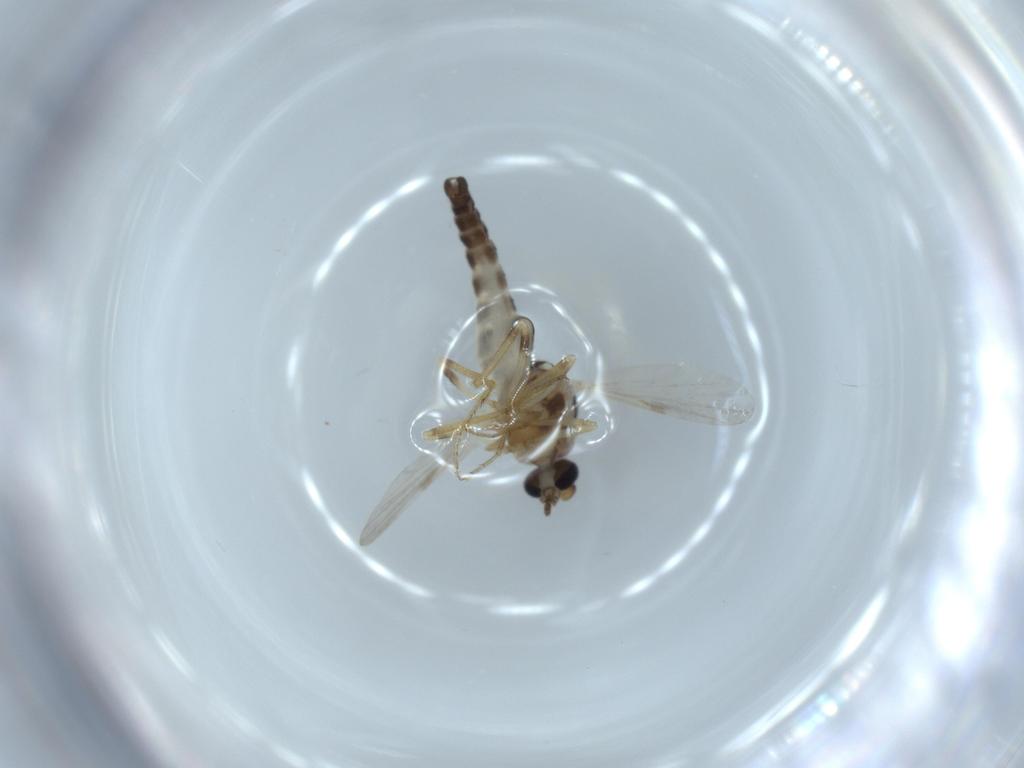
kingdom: Animalia
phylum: Arthropoda
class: Insecta
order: Diptera
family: Ceratopogonidae
